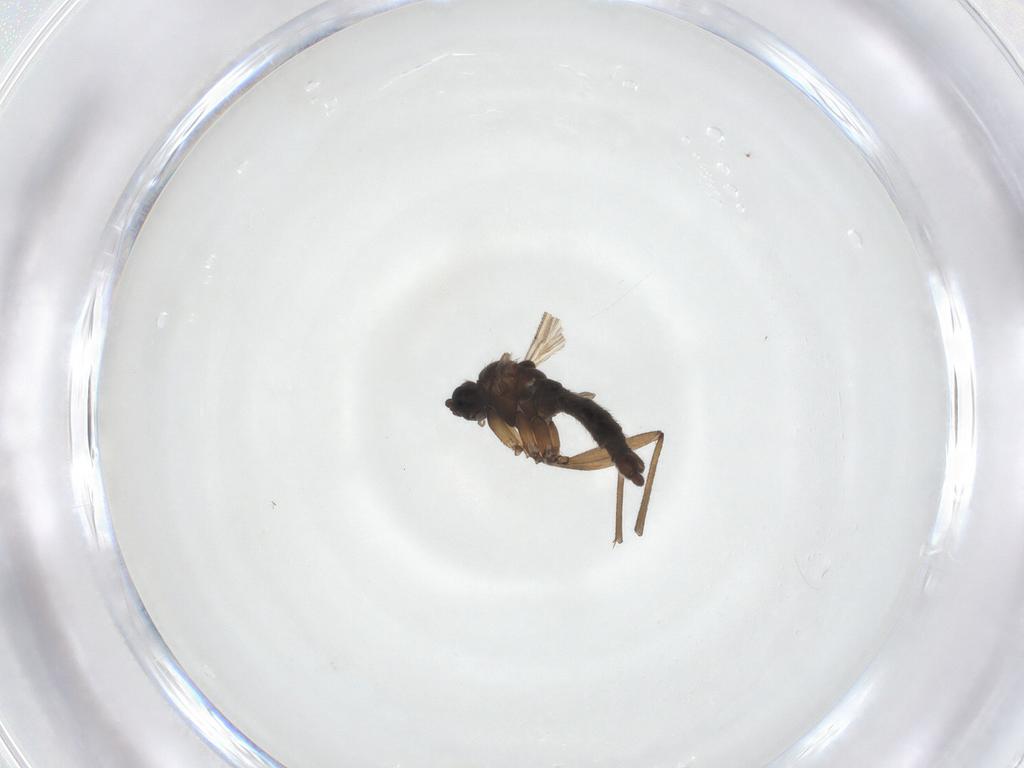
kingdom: Animalia
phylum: Arthropoda
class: Insecta
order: Diptera
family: Sciaridae
